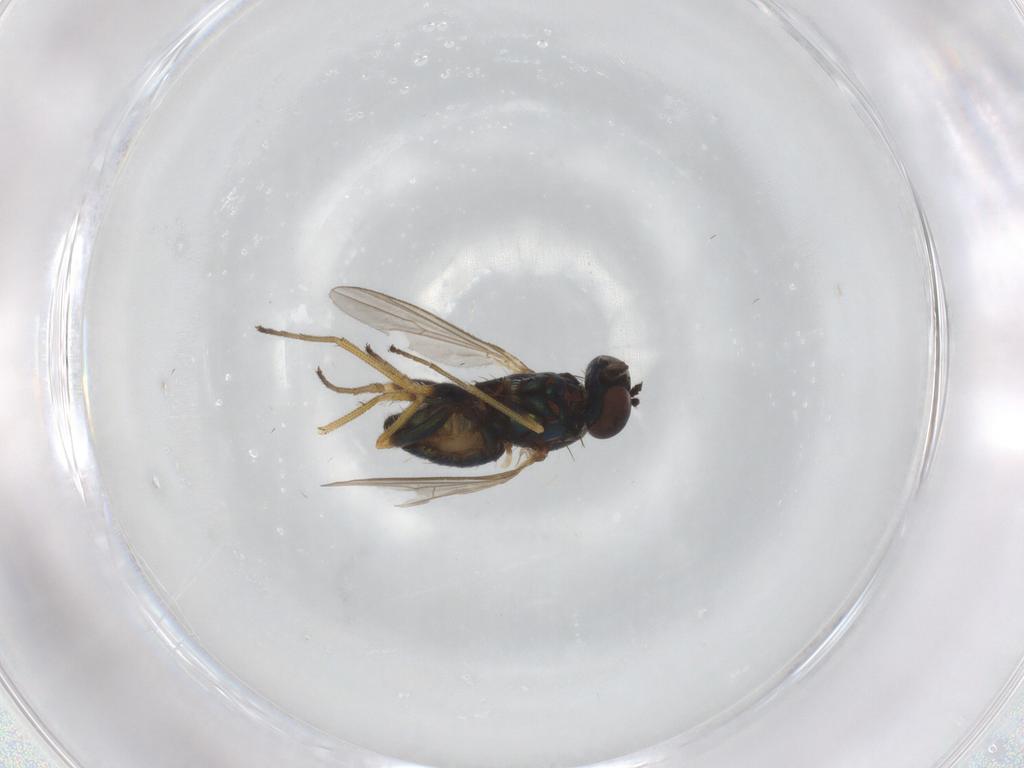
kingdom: Animalia
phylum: Arthropoda
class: Insecta
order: Diptera
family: Dolichopodidae
